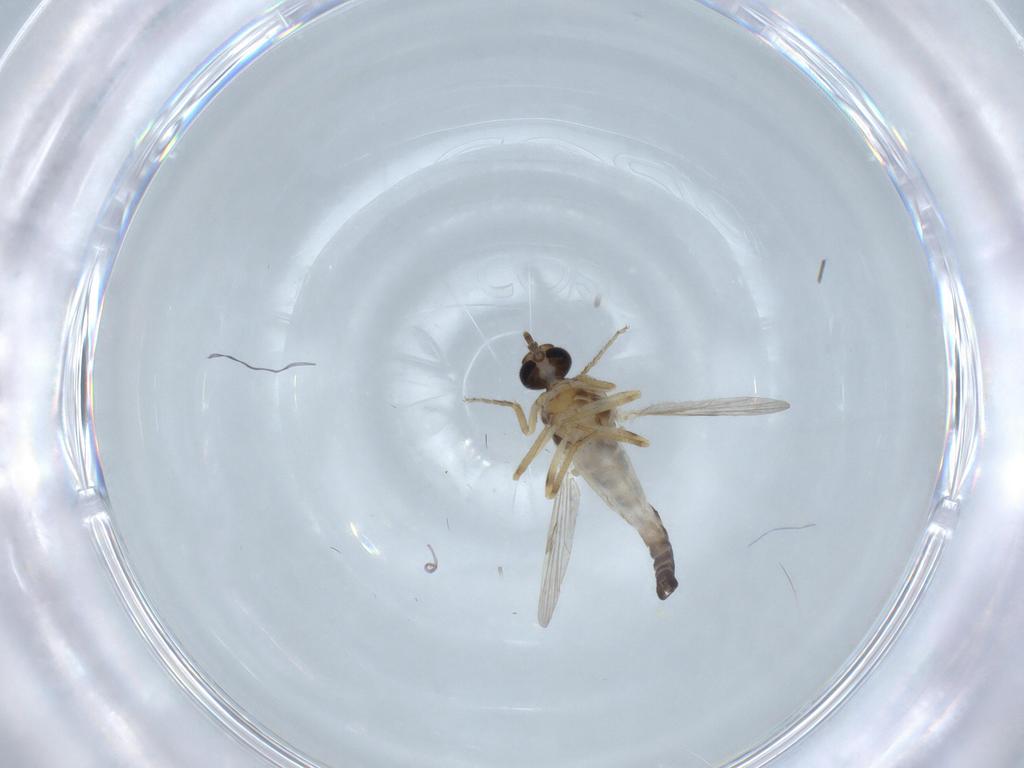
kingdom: Animalia
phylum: Arthropoda
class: Insecta
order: Diptera
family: Ceratopogonidae
